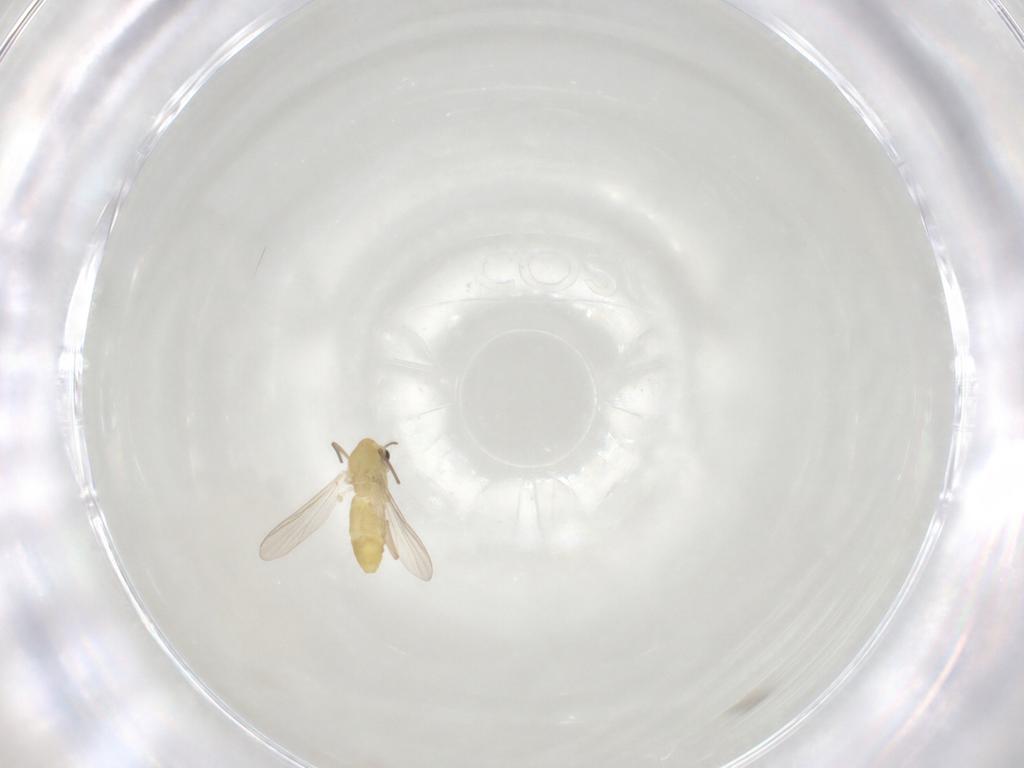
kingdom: Animalia
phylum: Arthropoda
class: Insecta
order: Diptera
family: Chironomidae
